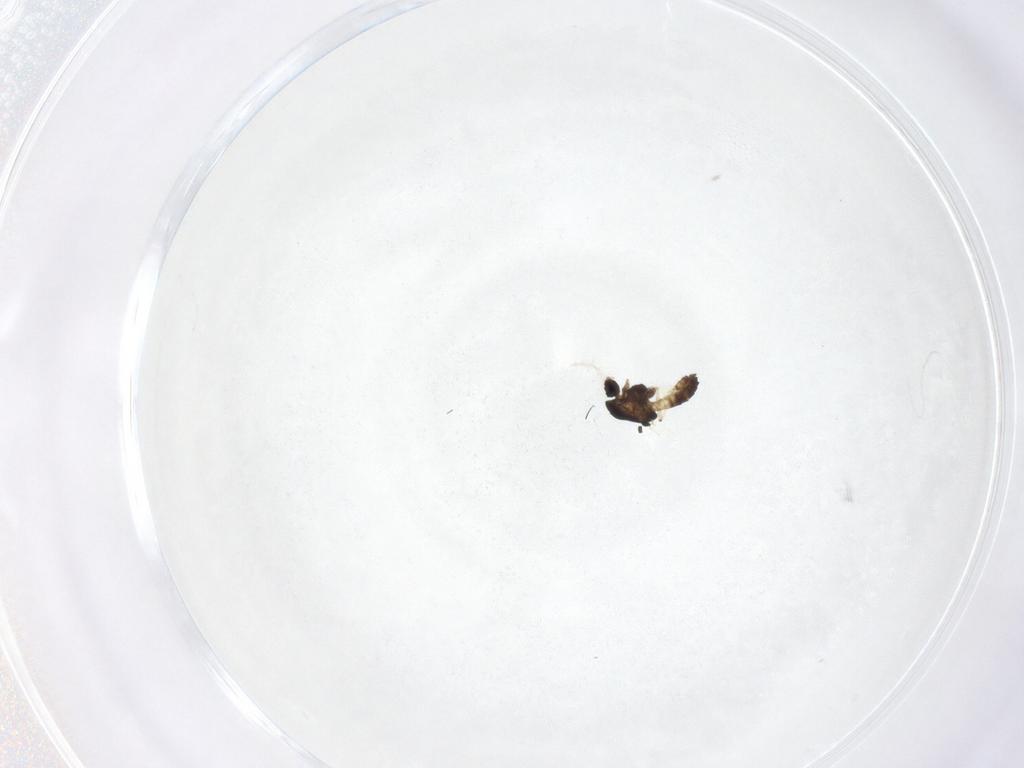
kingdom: Animalia
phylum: Arthropoda
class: Insecta
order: Diptera
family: Chironomidae
